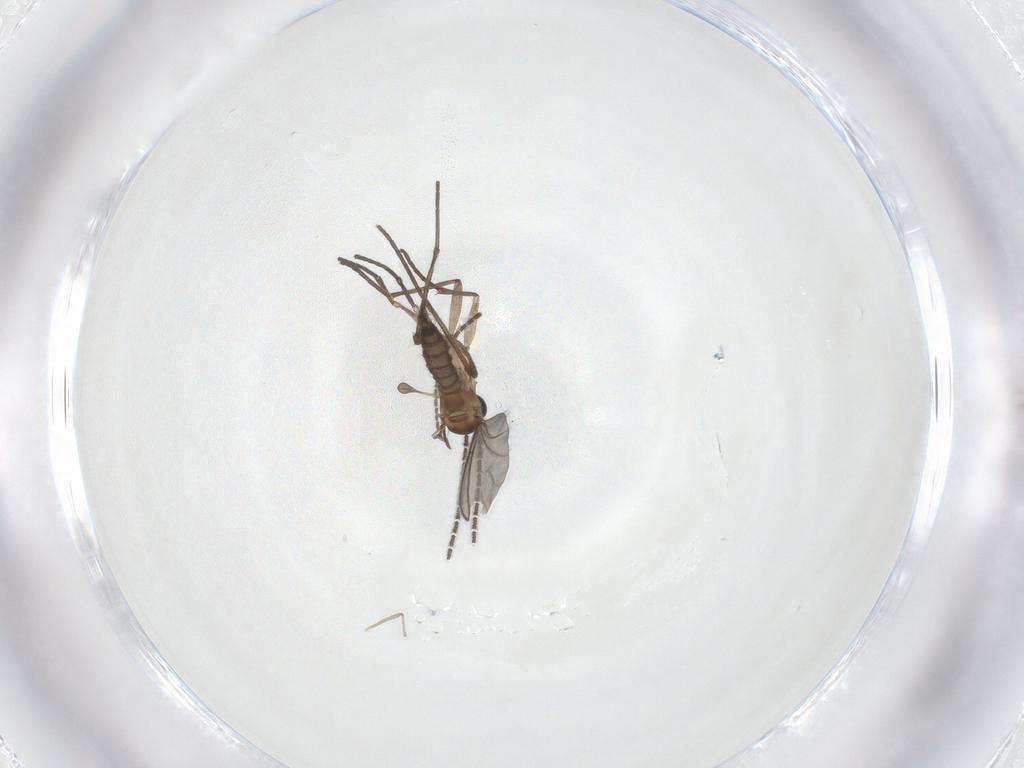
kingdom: Animalia
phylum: Arthropoda
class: Insecta
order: Diptera
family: Sciaridae
